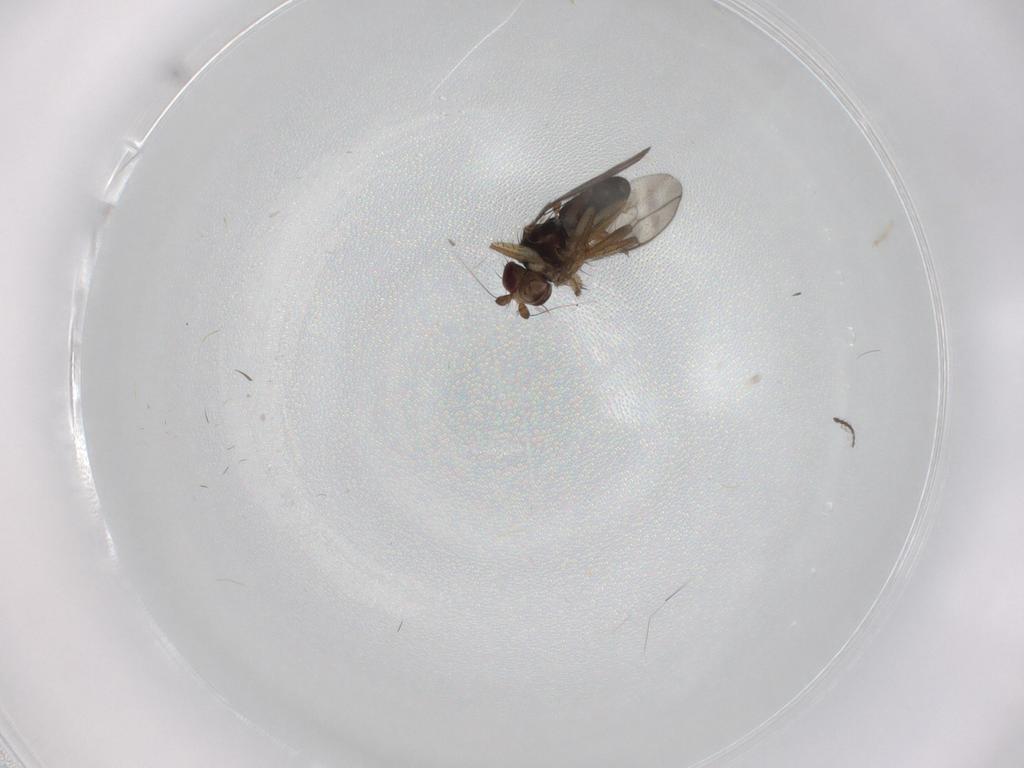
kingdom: Animalia
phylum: Arthropoda
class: Insecta
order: Diptera
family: Sphaeroceridae
